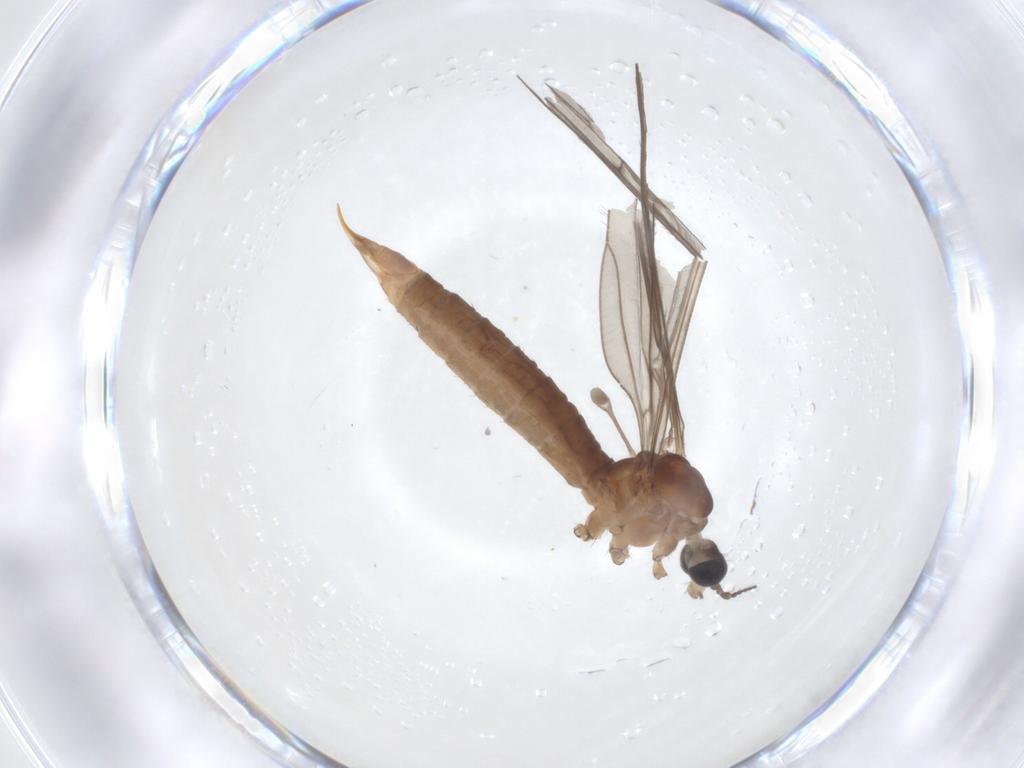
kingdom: Animalia
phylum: Arthropoda
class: Insecta
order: Diptera
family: Limoniidae
